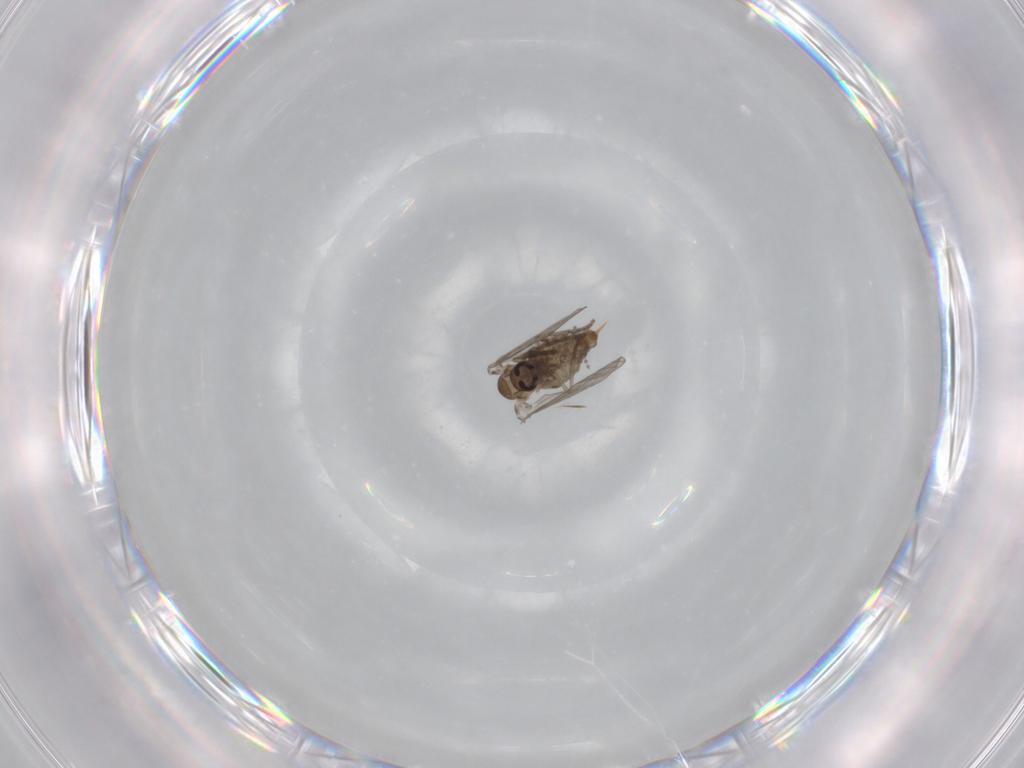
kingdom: Animalia
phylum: Arthropoda
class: Insecta
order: Diptera
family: Psychodidae
